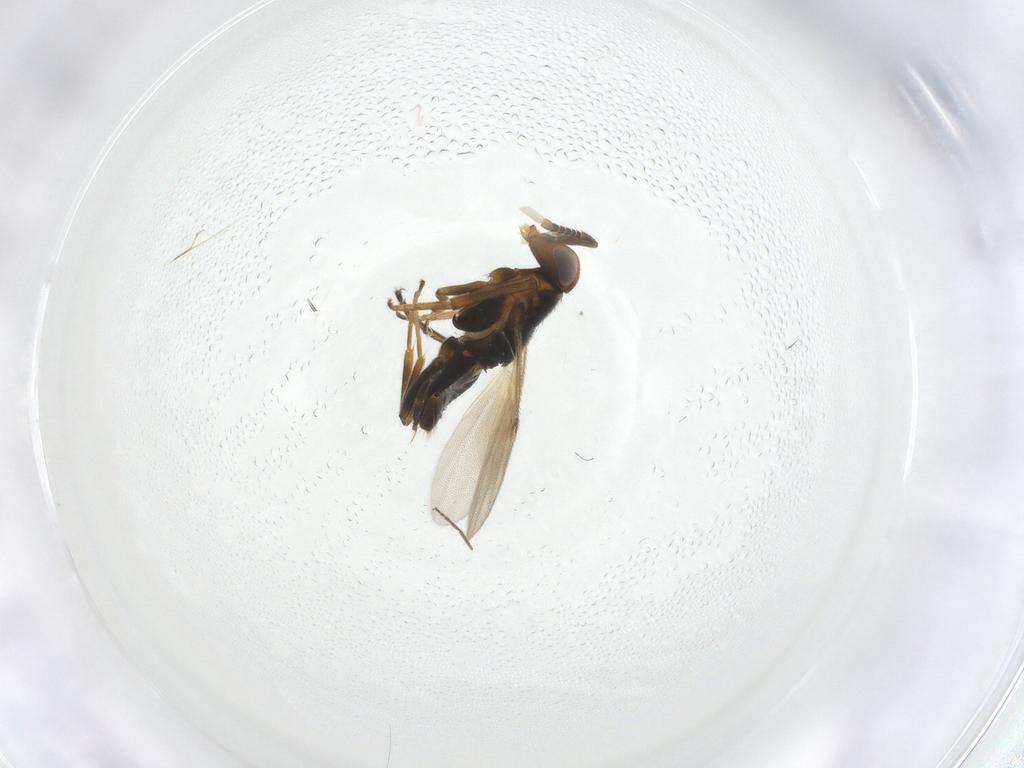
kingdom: Animalia
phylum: Arthropoda
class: Insecta
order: Hymenoptera
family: Encyrtidae
